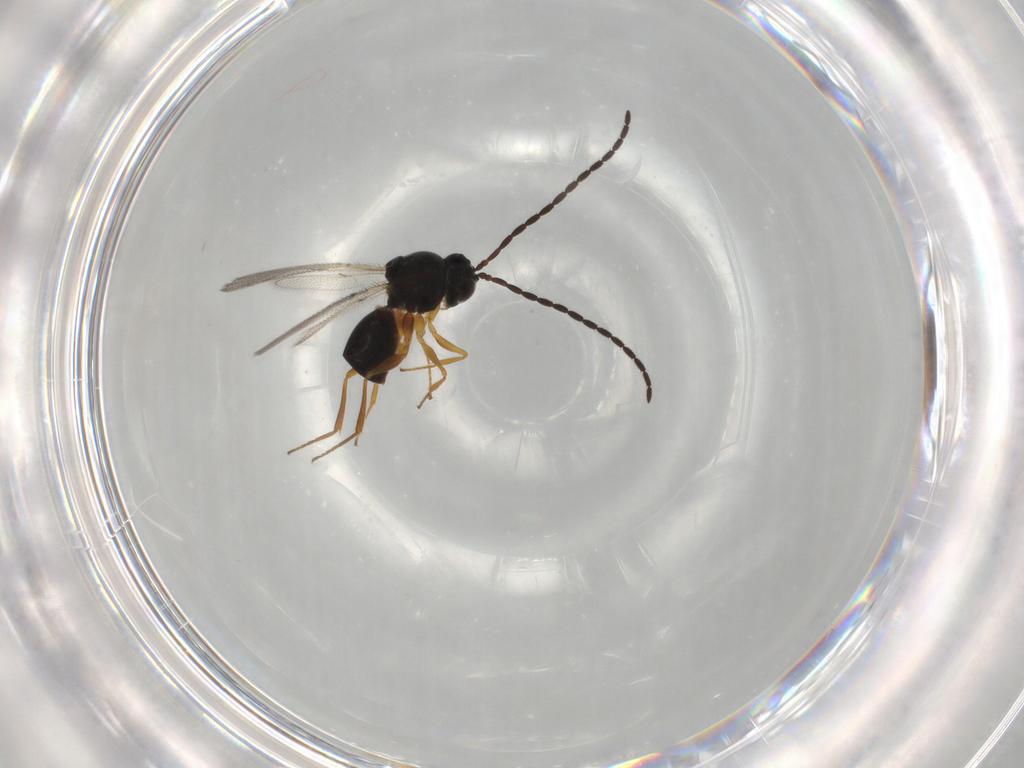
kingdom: Animalia
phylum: Arthropoda
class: Insecta
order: Hymenoptera
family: Figitidae
